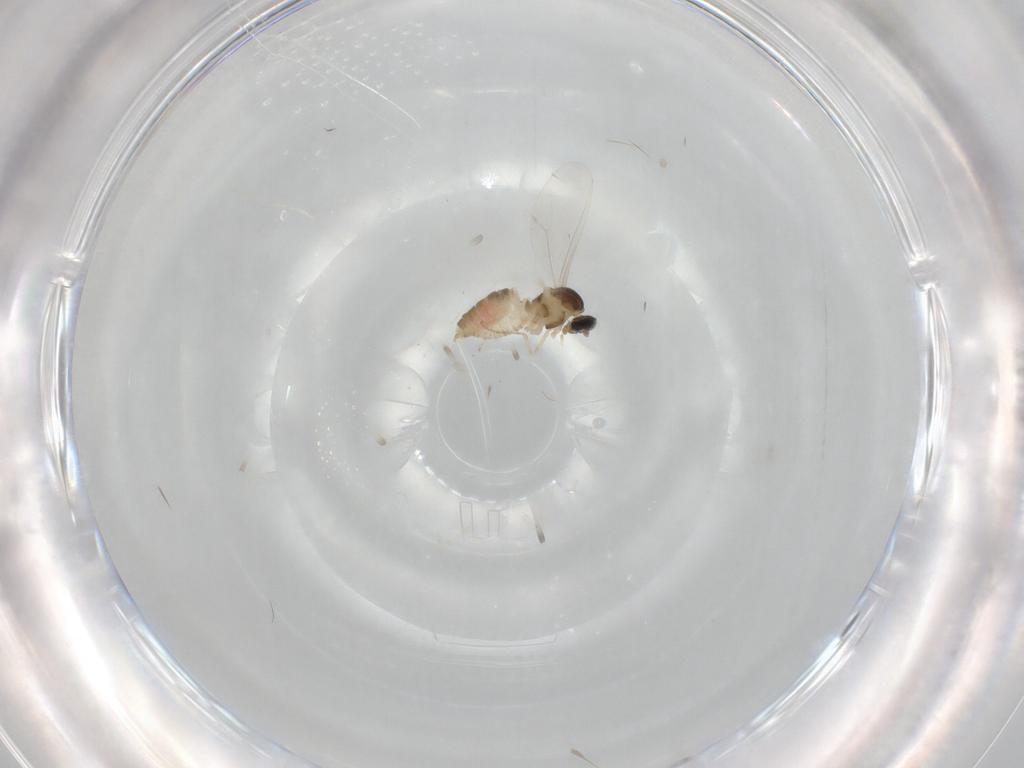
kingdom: Animalia
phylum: Arthropoda
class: Insecta
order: Diptera
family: Cecidomyiidae
